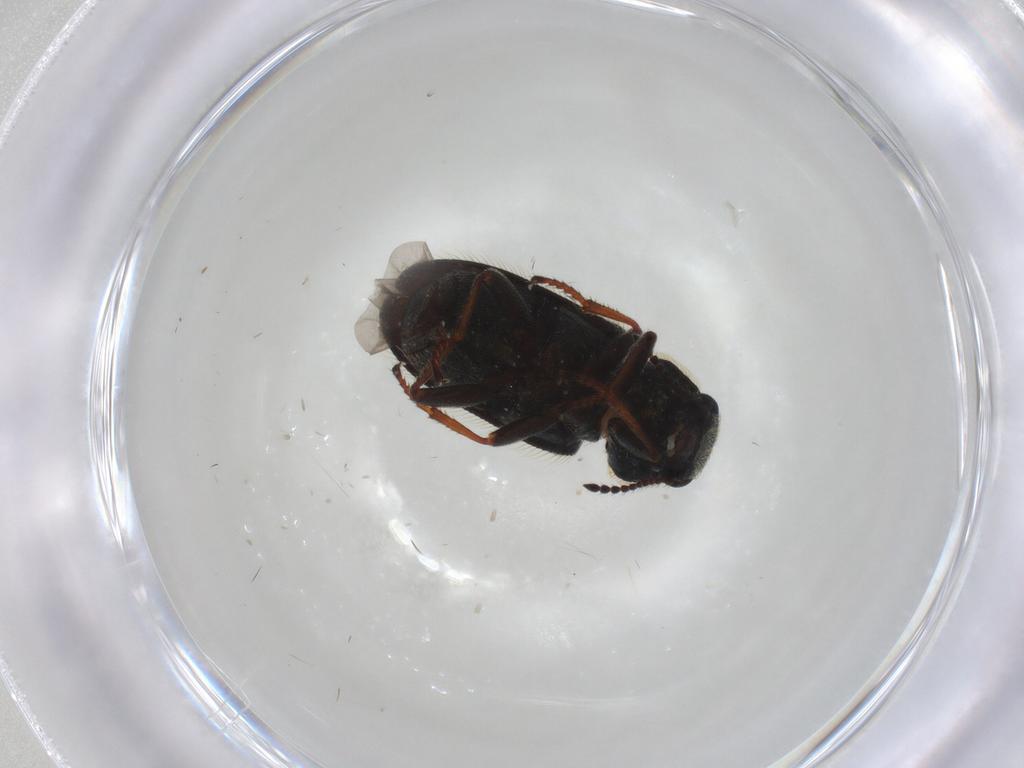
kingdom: Animalia
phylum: Arthropoda
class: Insecta
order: Coleoptera
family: Melyridae
